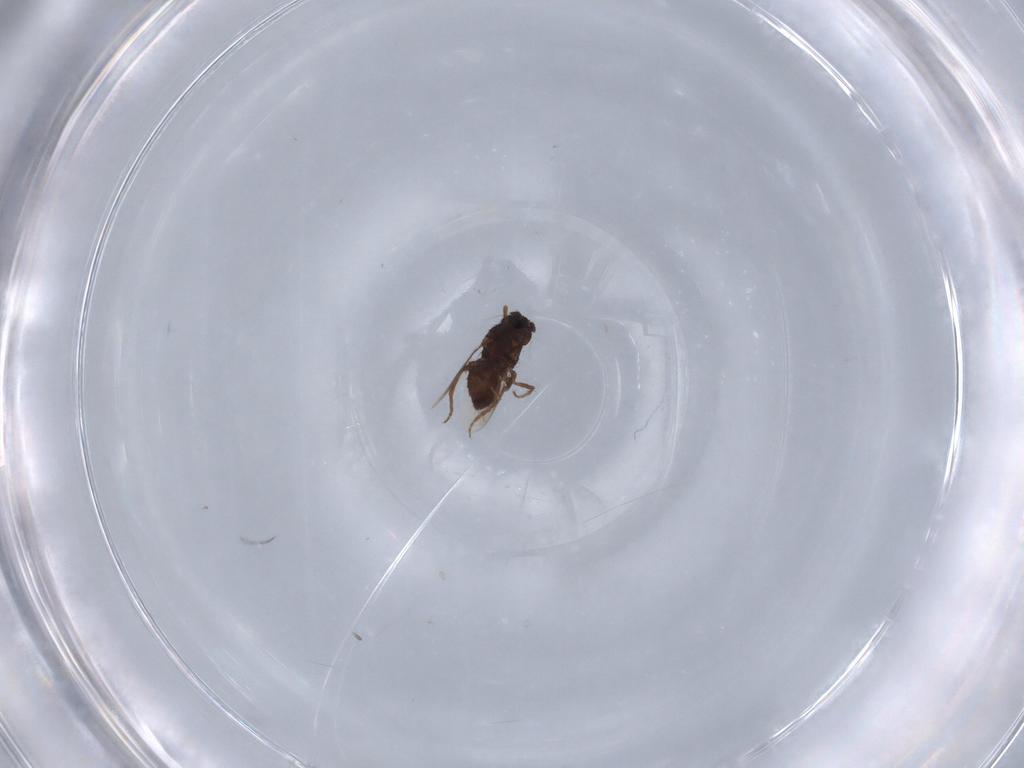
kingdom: Animalia
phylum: Arthropoda
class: Insecta
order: Diptera
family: Cecidomyiidae
